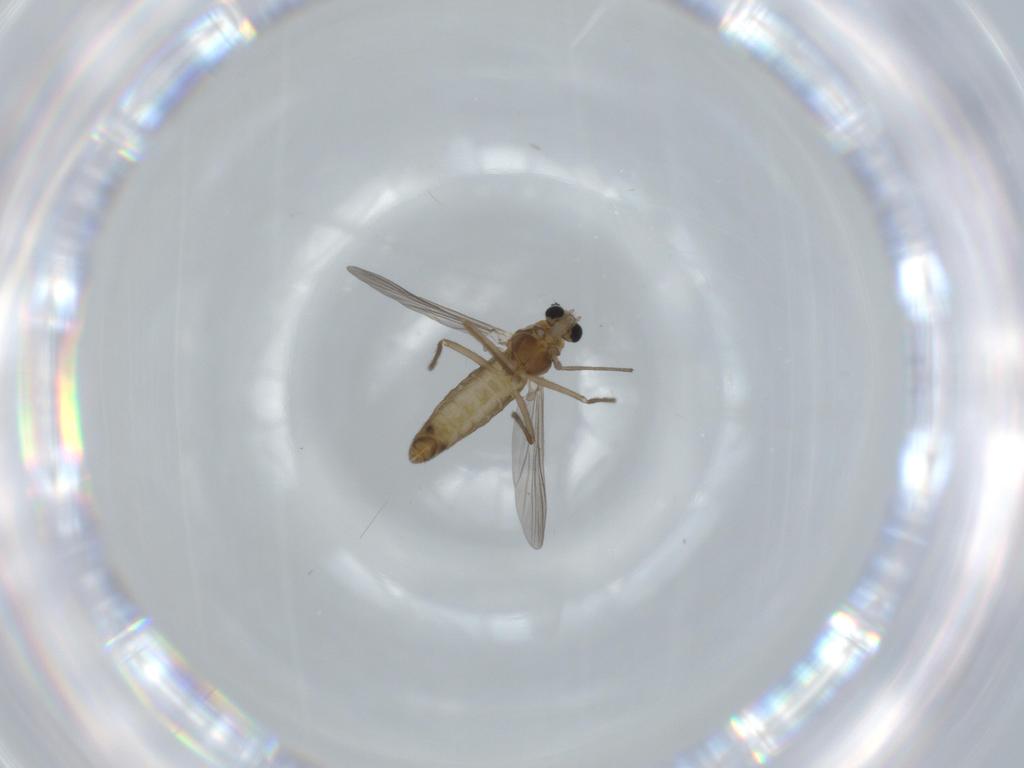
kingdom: Animalia
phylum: Arthropoda
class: Insecta
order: Diptera
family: Chironomidae
